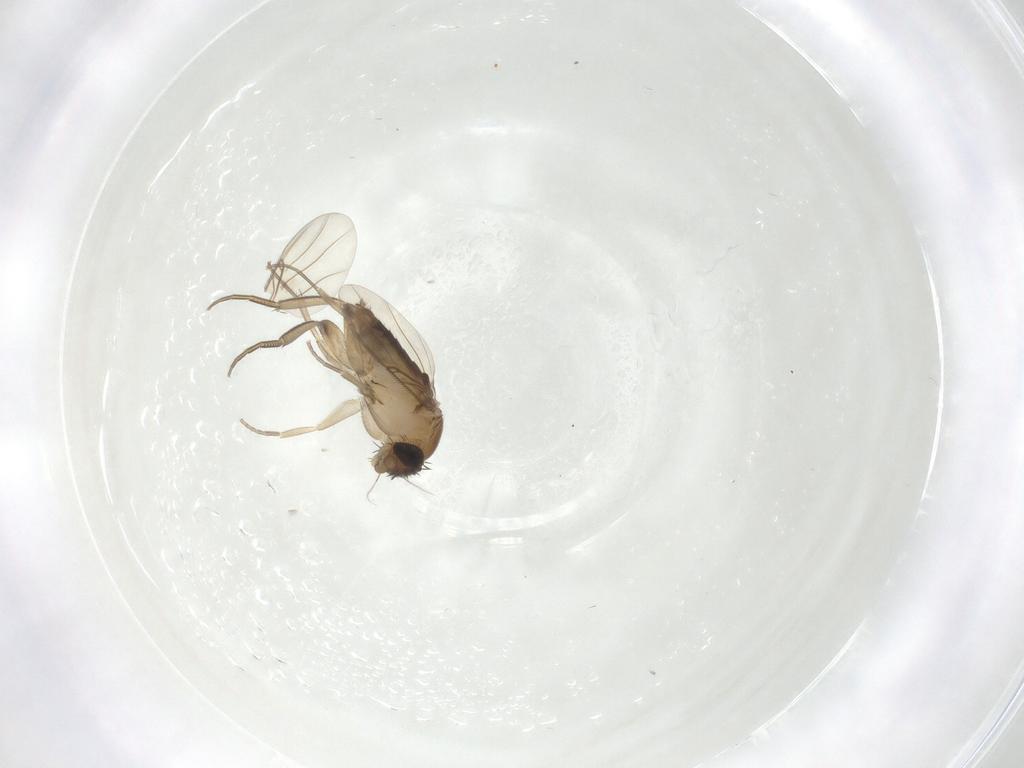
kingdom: Animalia
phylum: Arthropoda
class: Insecta
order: Diptera
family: Phoridae
